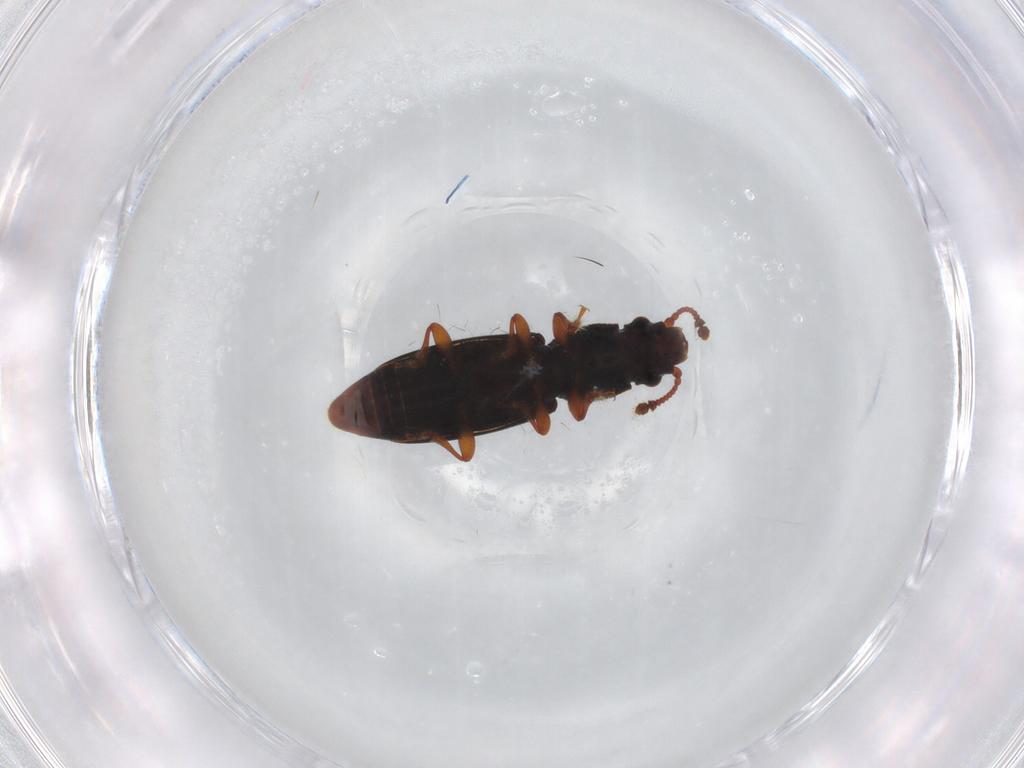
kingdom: Animalia
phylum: Arthropoda
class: Insecta
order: Coleoptera
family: Monotomidae
